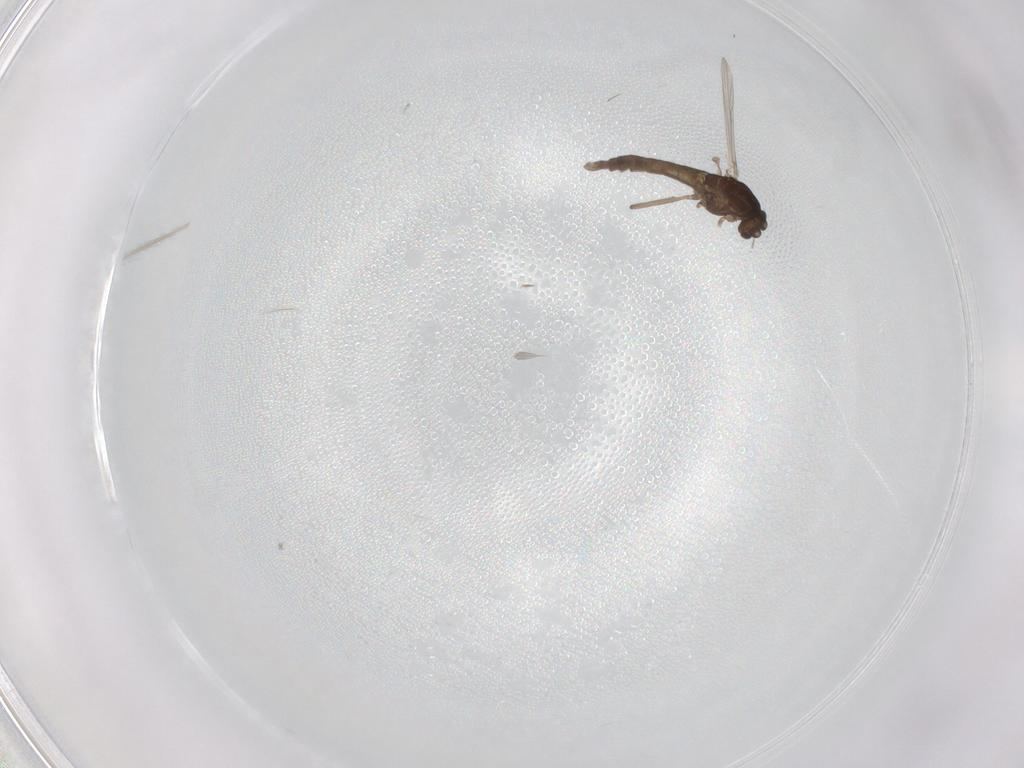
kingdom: Animalia
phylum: Arthropoda
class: Insecta
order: Diptera
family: Chironomidae
